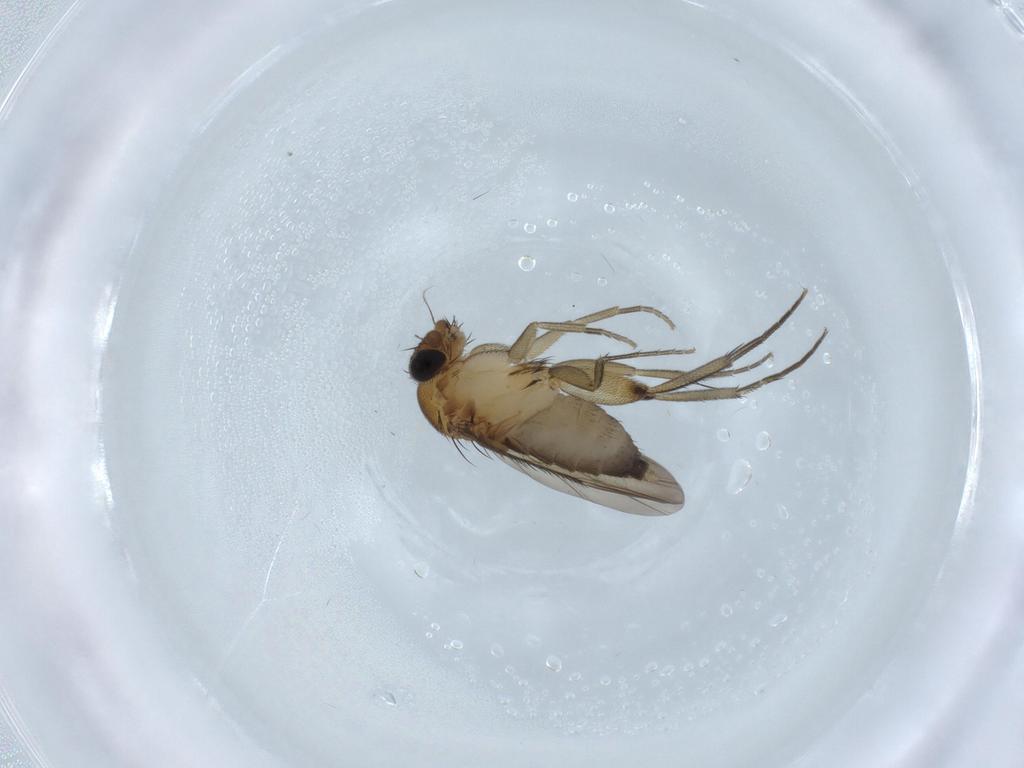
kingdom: Animalia
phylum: Arthropoda
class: Insecta
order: Diptera
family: Phoridae
